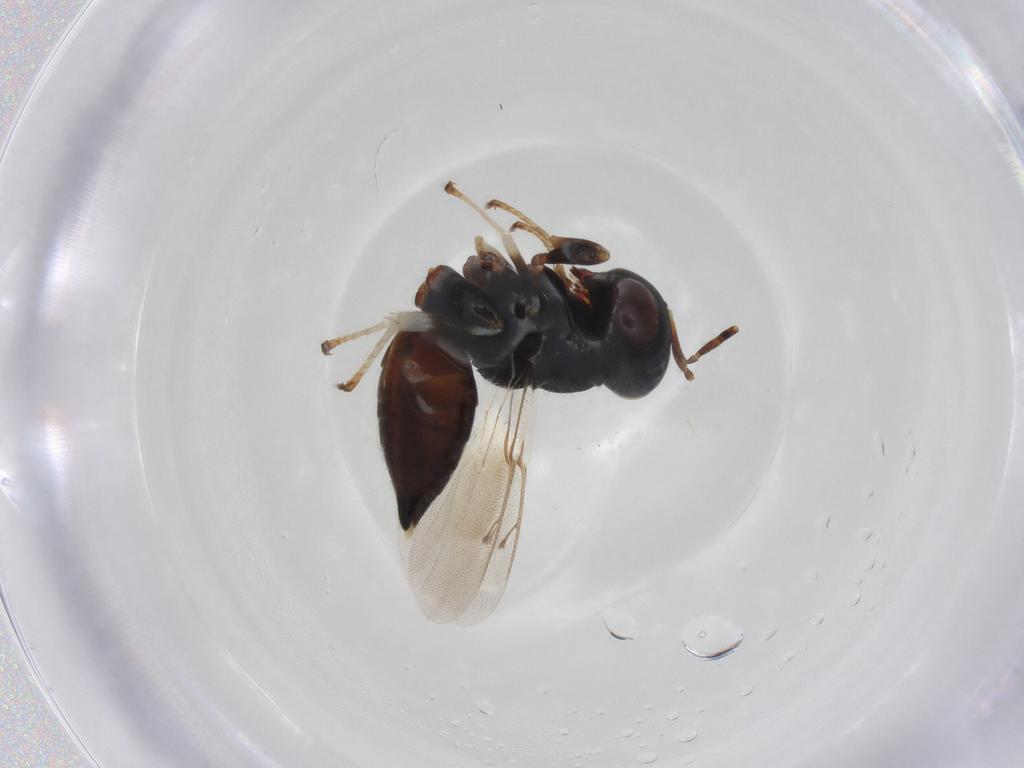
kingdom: Animalia
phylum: Arthropoda
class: Insecta
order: Hymenoptera
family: Pteromalidae
